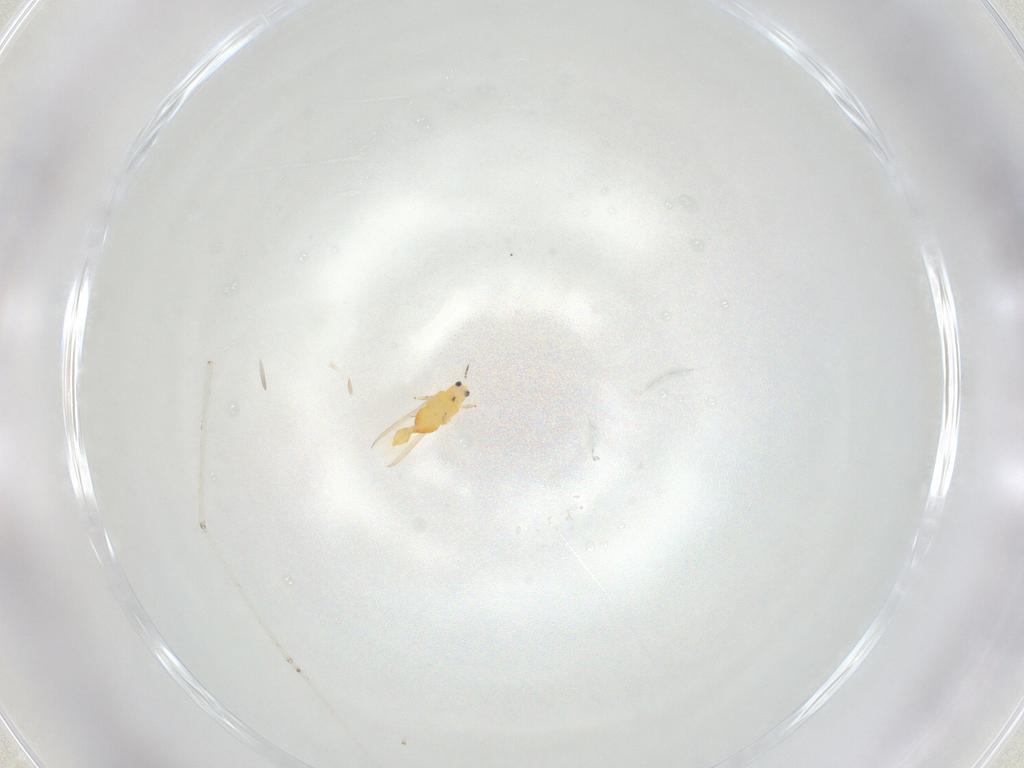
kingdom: Animalia
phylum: Arthropoda
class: Insecta
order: Thysanoptera
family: Thripidae
